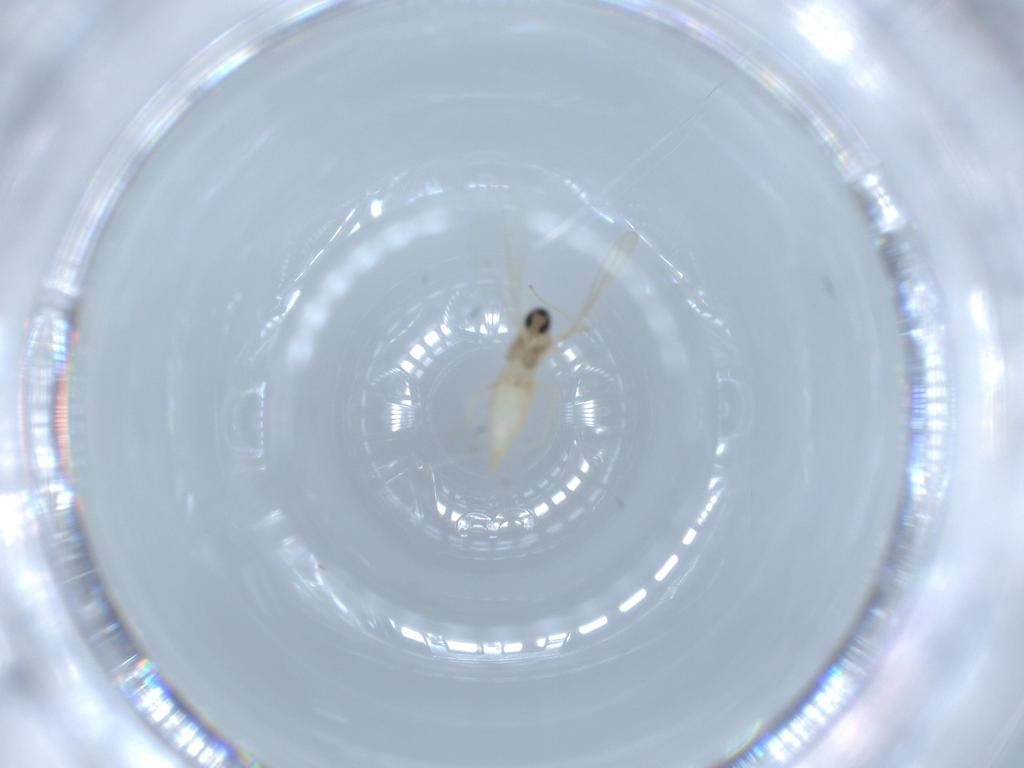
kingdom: Animalia
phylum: Arthropoda
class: Insecta
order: Diptera
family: Cecidomyiidae
